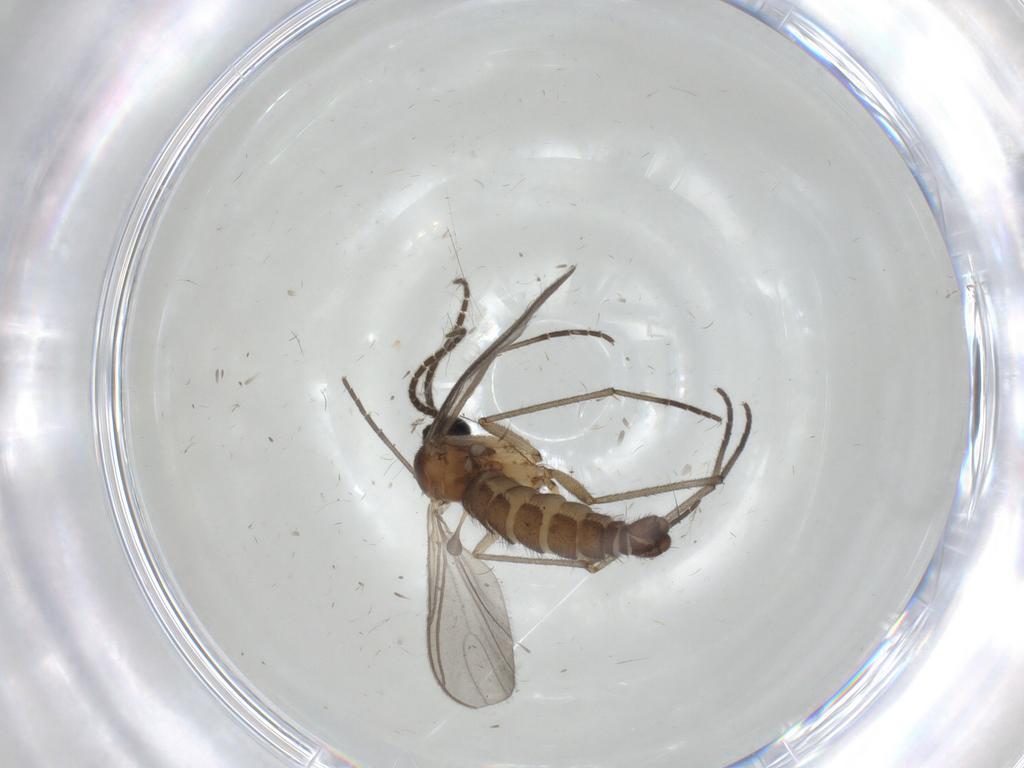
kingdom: Animalia
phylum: Arthropoda
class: Insecta
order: Diptera
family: Sciaridae
